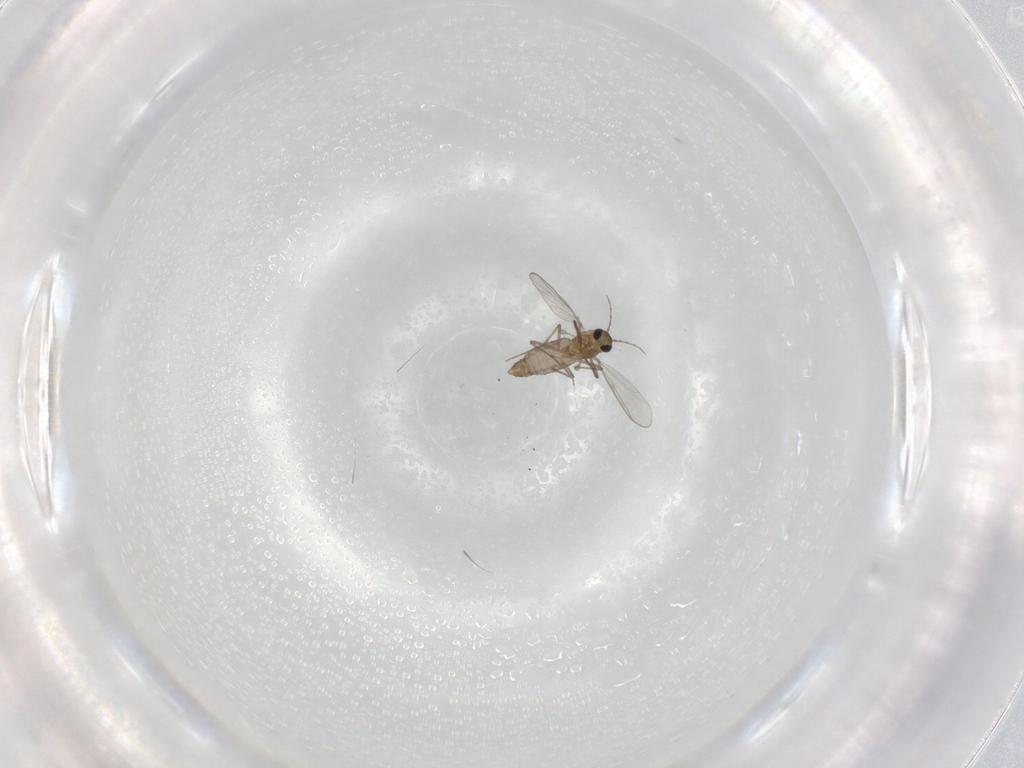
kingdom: Animalia
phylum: Arthropoda
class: Insecta
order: Diptera
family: Chironomidae
